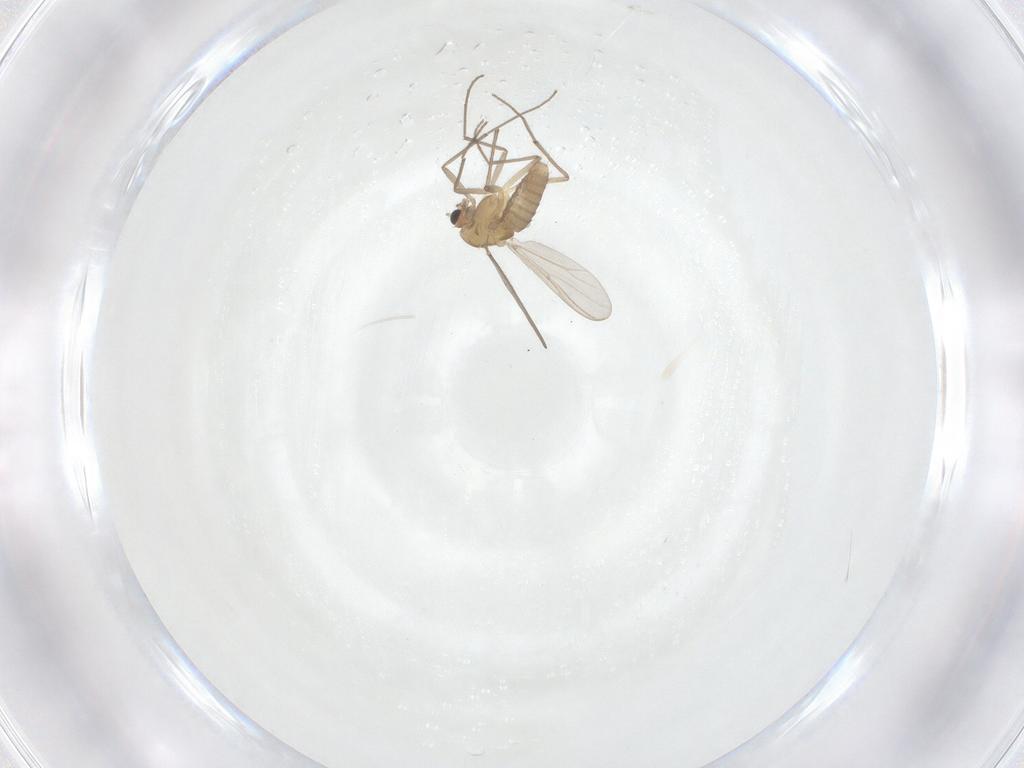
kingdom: Animalia
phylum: Arthropoda
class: Insecta
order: Diptera
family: Chironomidae
